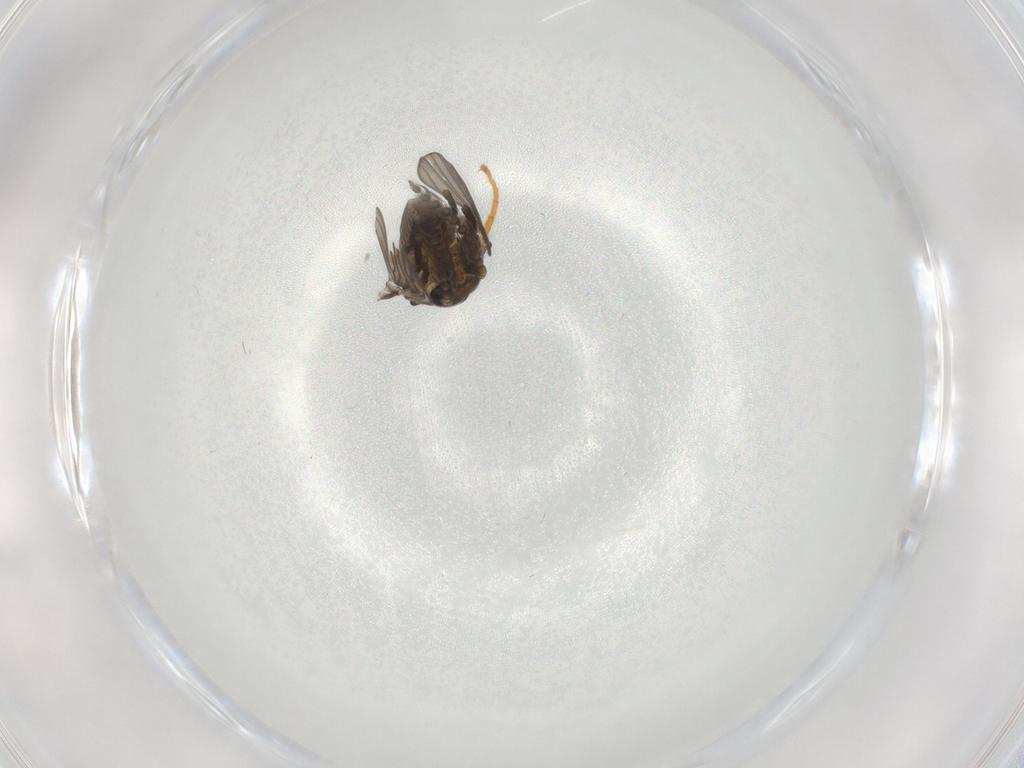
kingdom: Animalia
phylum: Arthropoda
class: Insecta
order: Diptera
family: Psychodidae
